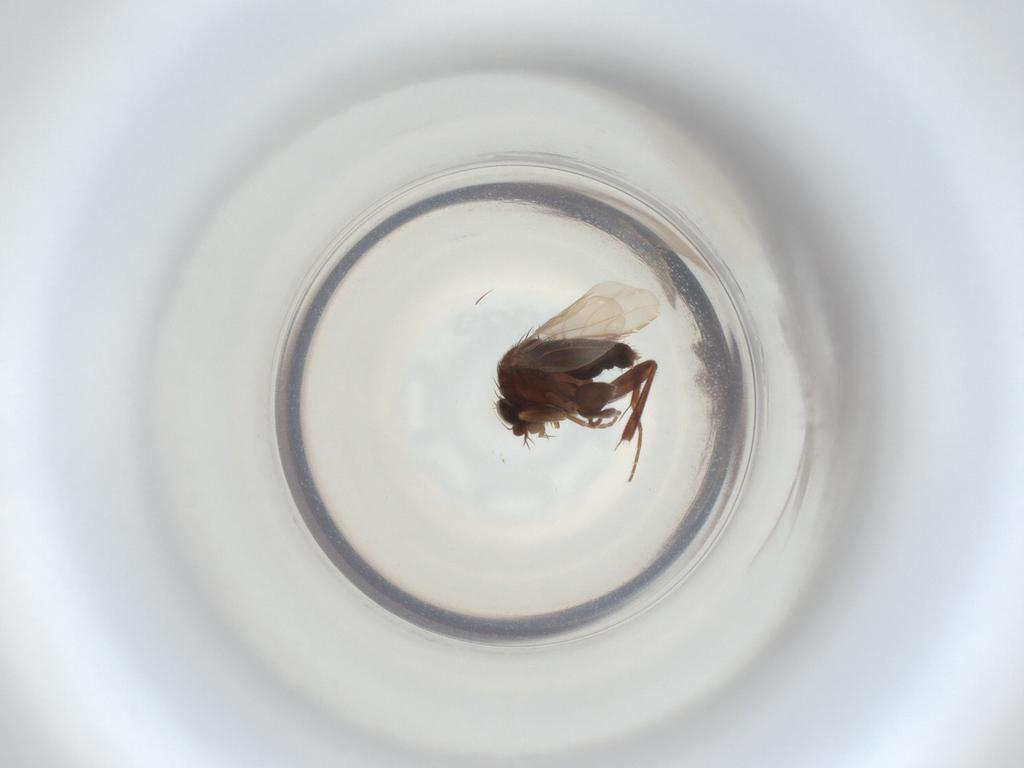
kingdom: Animalia
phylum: Arthropoda
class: Insecta
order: Diptera
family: Phoridae
